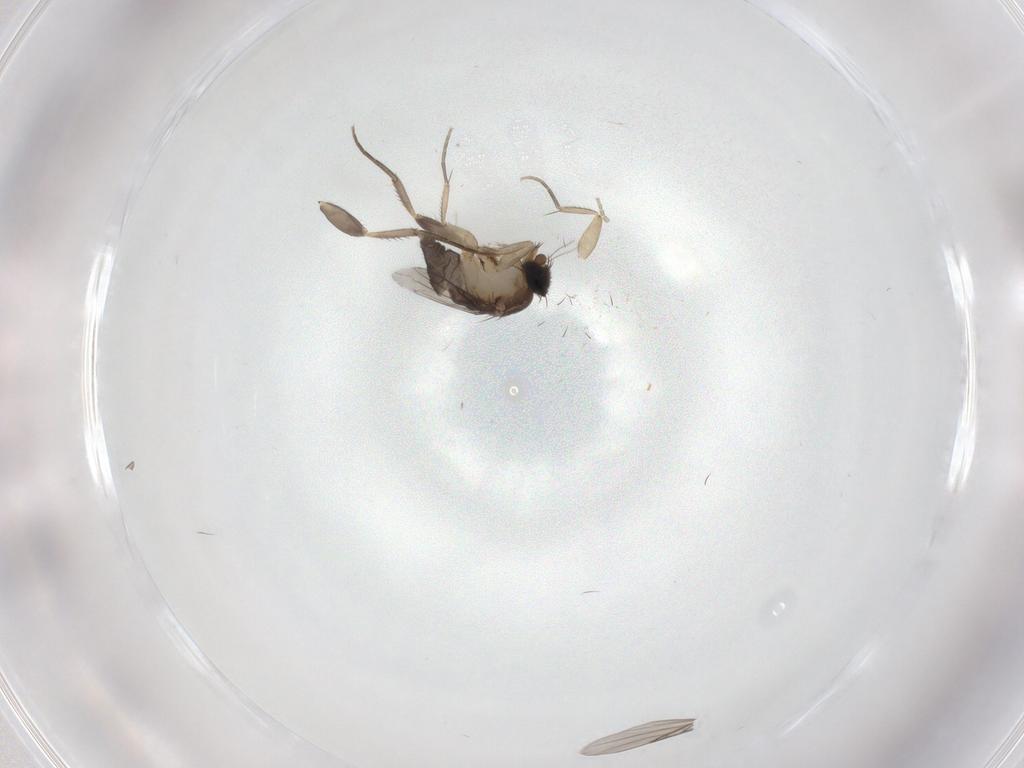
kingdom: Animalia
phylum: Arthropoda
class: Insecta
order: Diptera
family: Phoridae
